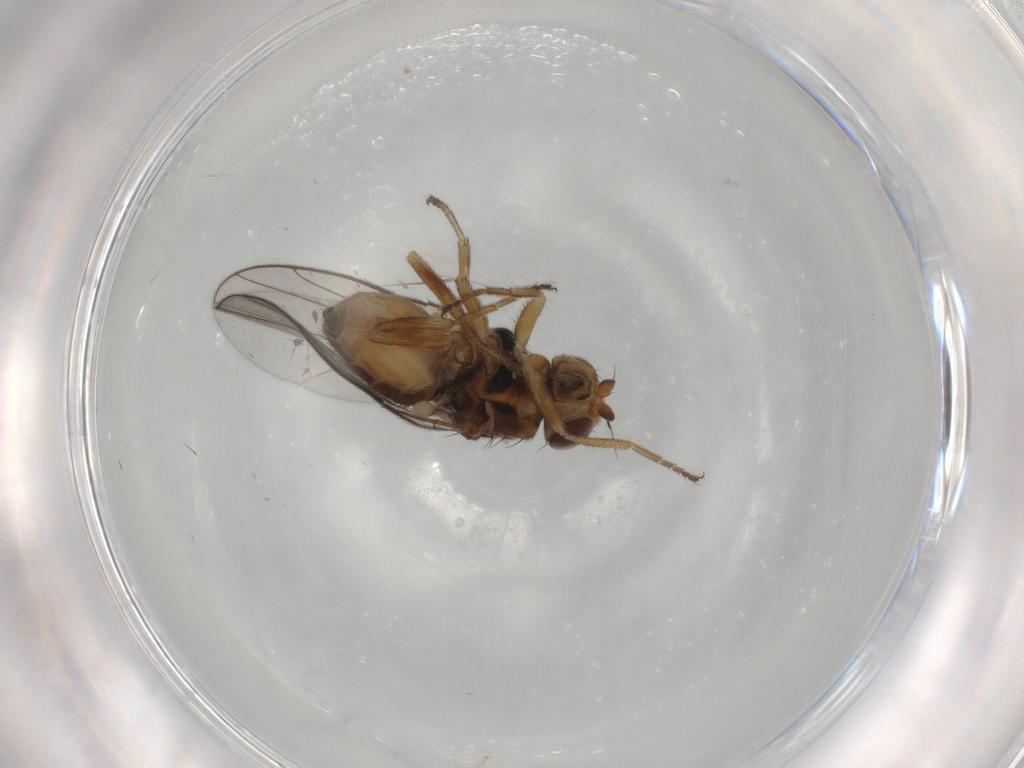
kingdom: Animalia
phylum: Arthropoda
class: Insecta
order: Diptera
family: Chloropidae
